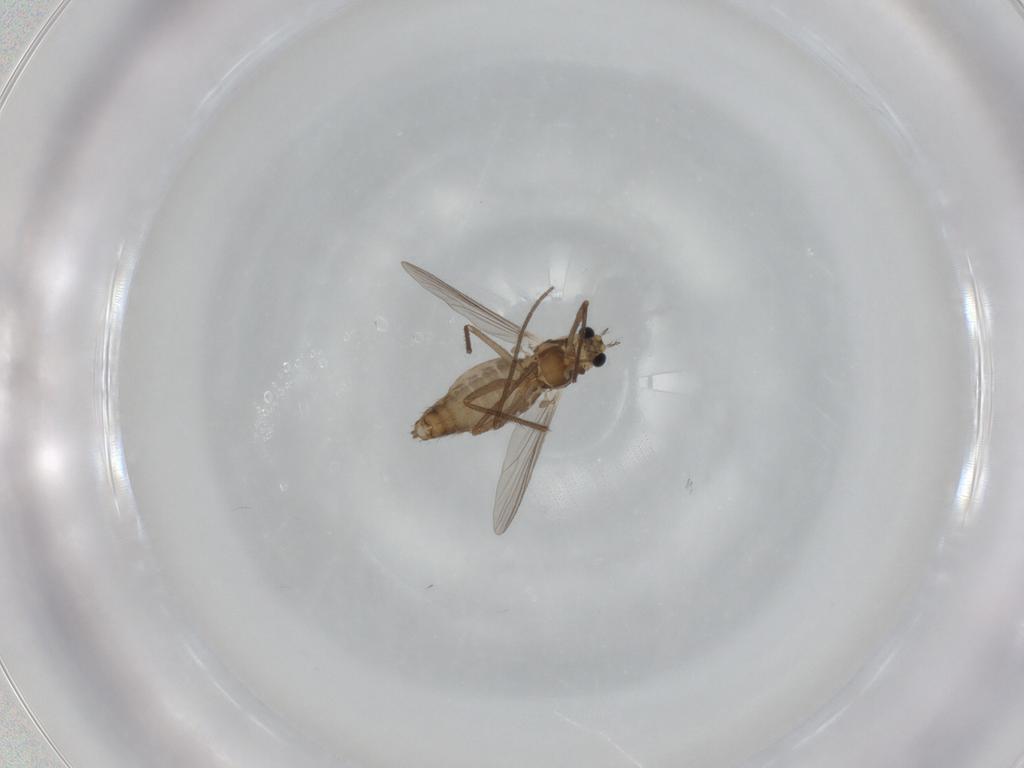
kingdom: Animalia
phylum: Arthropoda
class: Insecta
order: Diptera
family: Chironomidae
